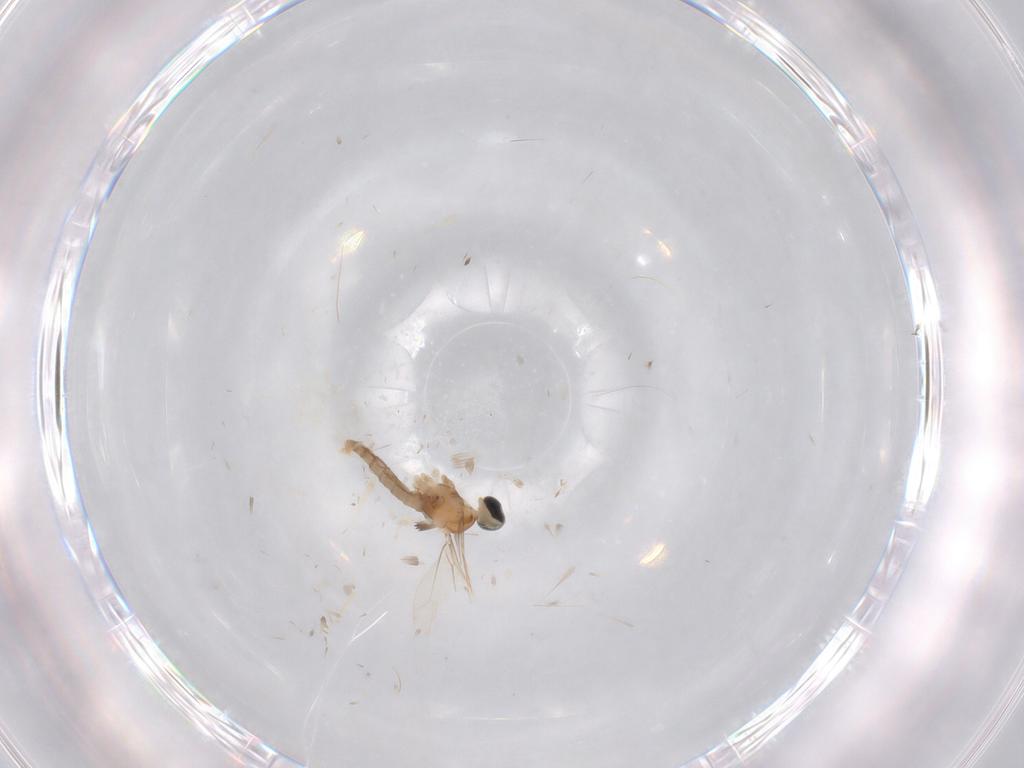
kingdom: Animalia
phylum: Arthropoda
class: Insecta
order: Diptera
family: Cecidomyiidae
